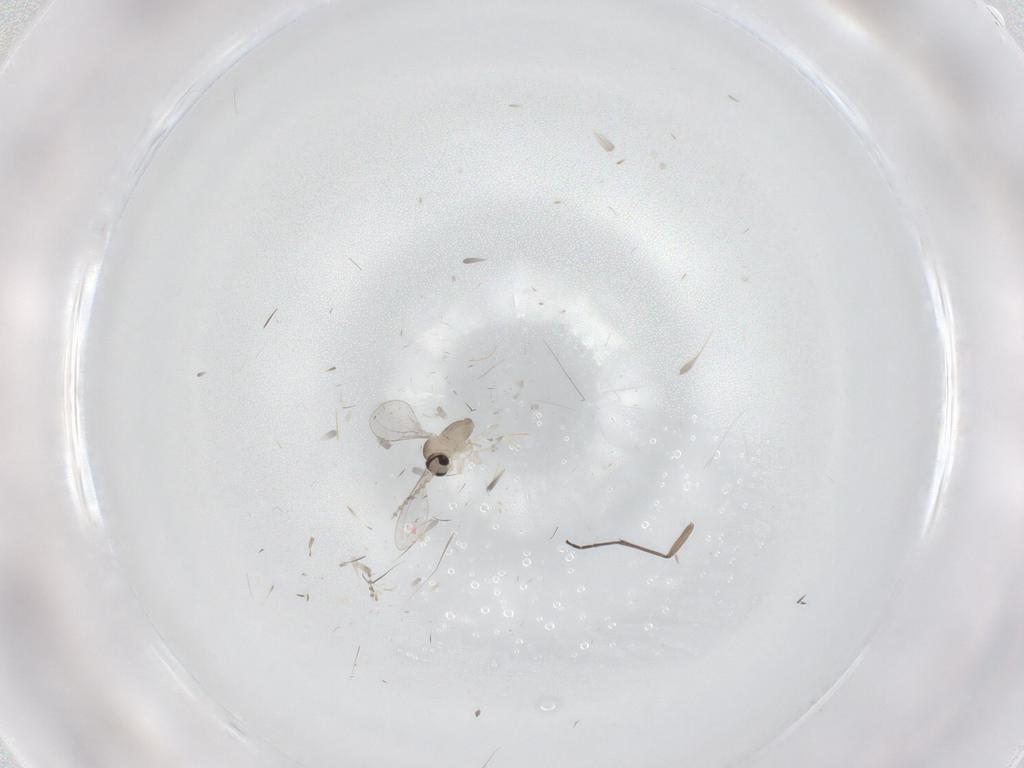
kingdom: Animalia
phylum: Arthropoda
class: Insecta
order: Diptera
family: Cecidomyiidae
